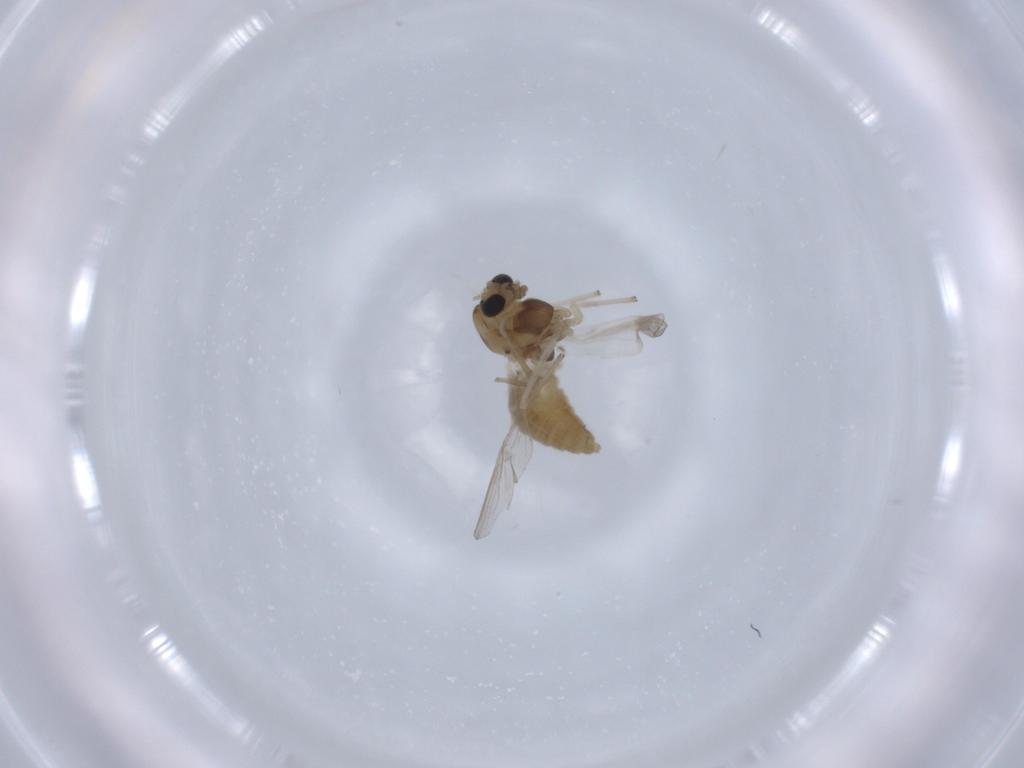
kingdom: Animalia
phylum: Arthropoda
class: Insecta
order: Diptera
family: Chironomidae
